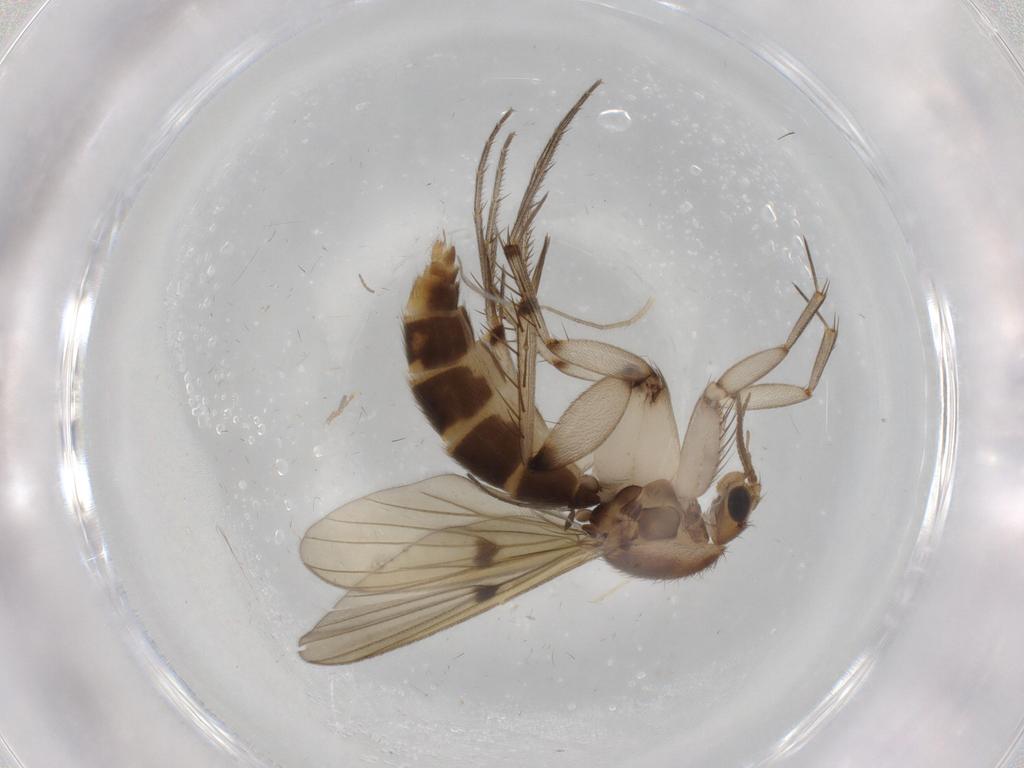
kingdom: Animalia
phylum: Arthropoda
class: Insecta
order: Diptera
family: Mycetophilidae
